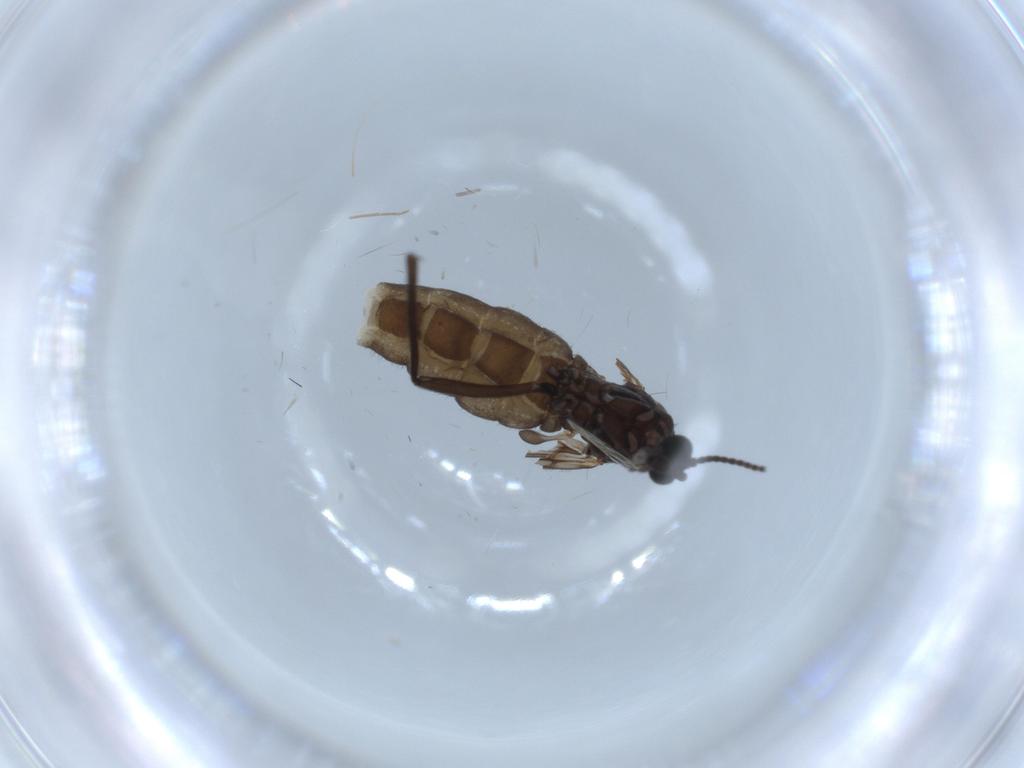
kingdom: Animalia
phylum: Arthropoda
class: Insecta
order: Diptera
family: Sciaridae
